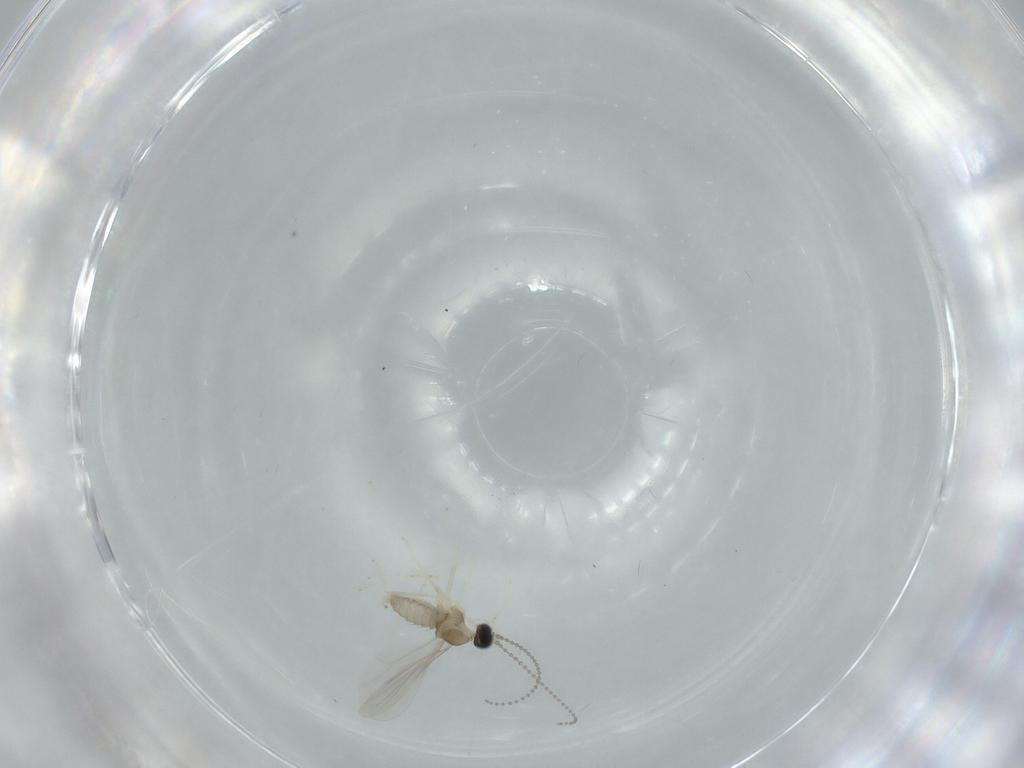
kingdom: Animalia
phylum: Arthropoda
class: Insecta
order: Diptera
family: Cecidomyiidae
